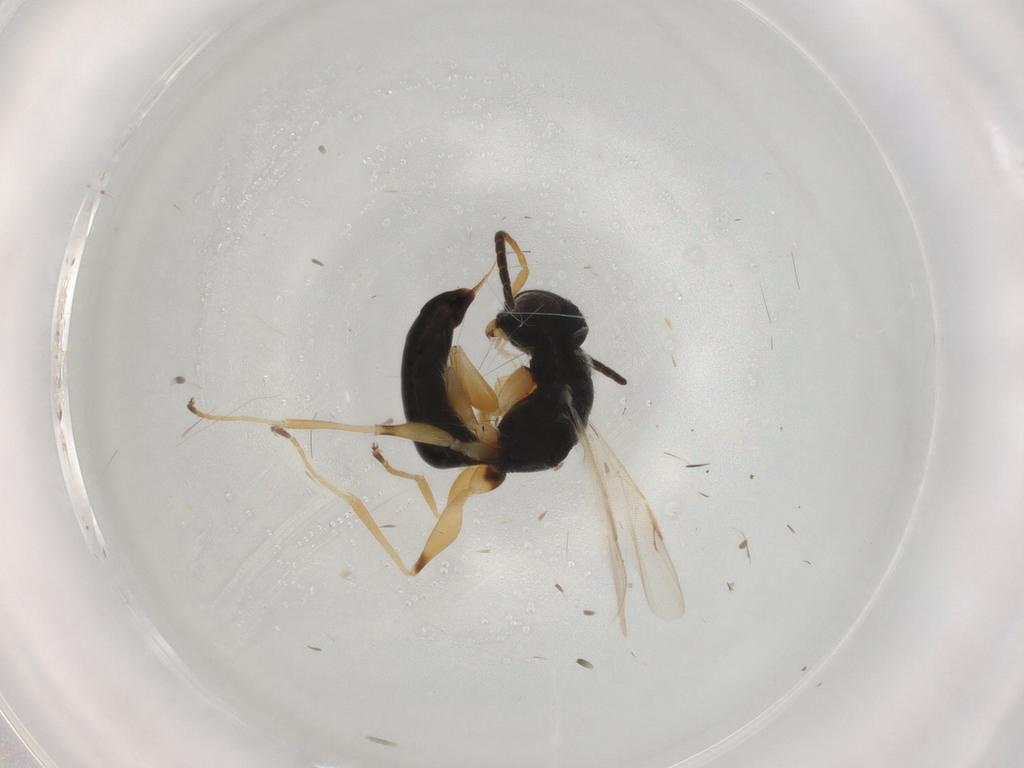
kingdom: Animalia
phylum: Arthropoda
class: Insecta
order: Hymenoptera
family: Dryinidae
